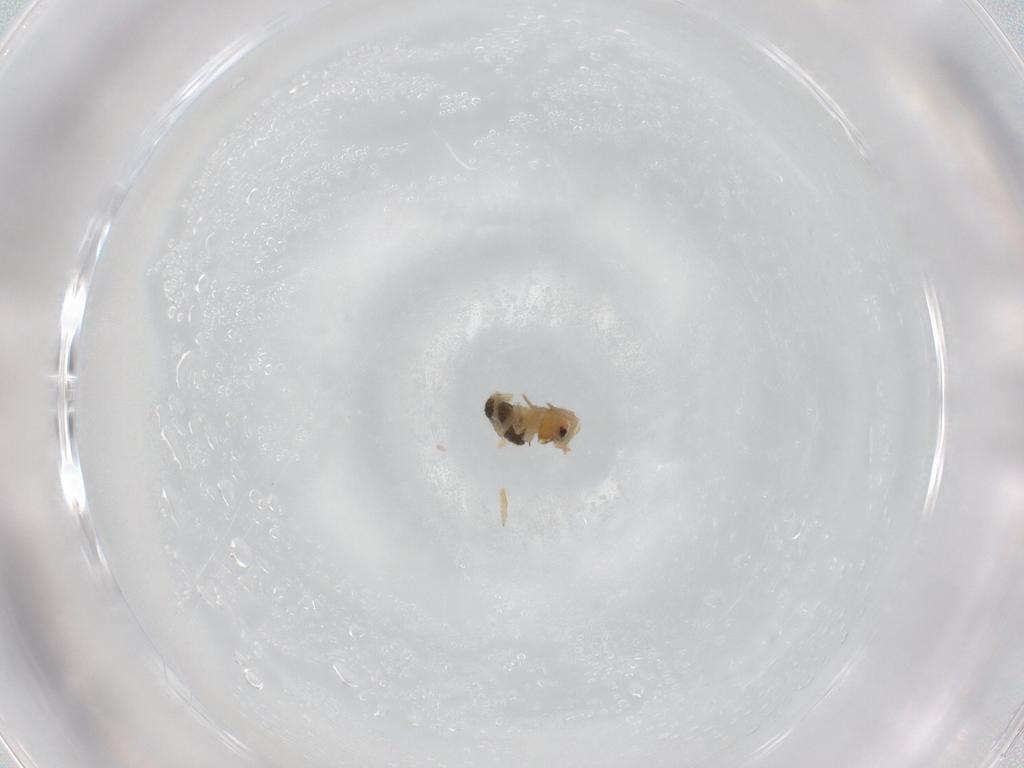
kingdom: Animalia
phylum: Arthropoda
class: Arachnida
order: Araneae
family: Theridiidae
